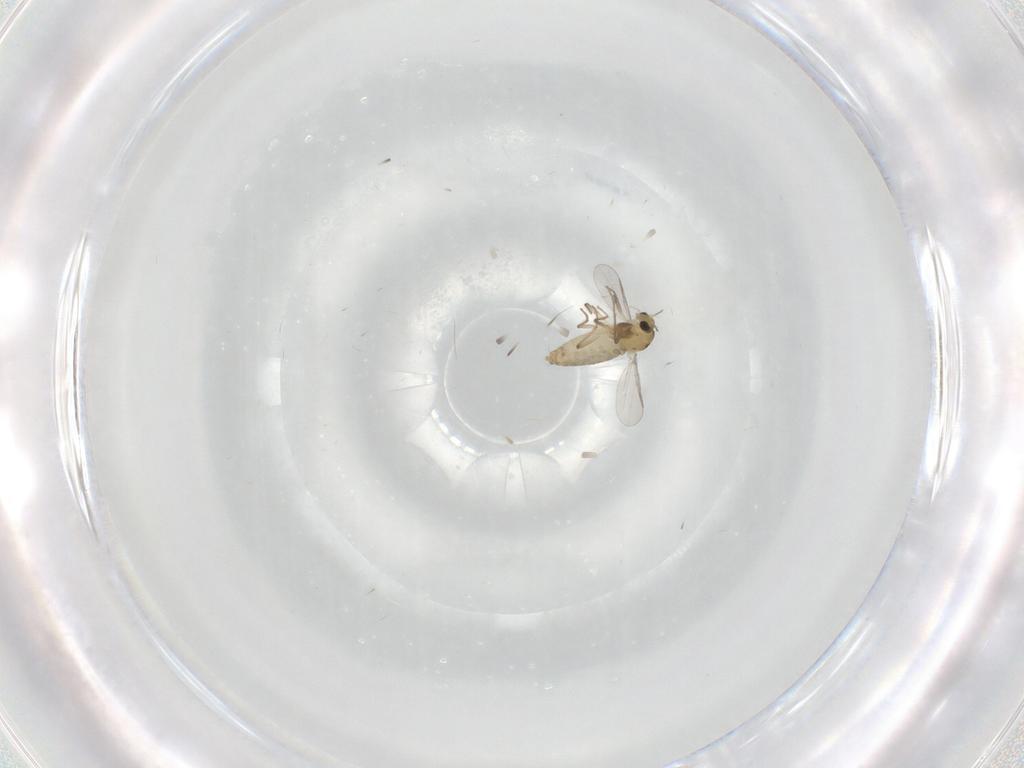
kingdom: Animalia
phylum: Arthropoda
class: Insecta
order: Diptera
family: Chironomidae
